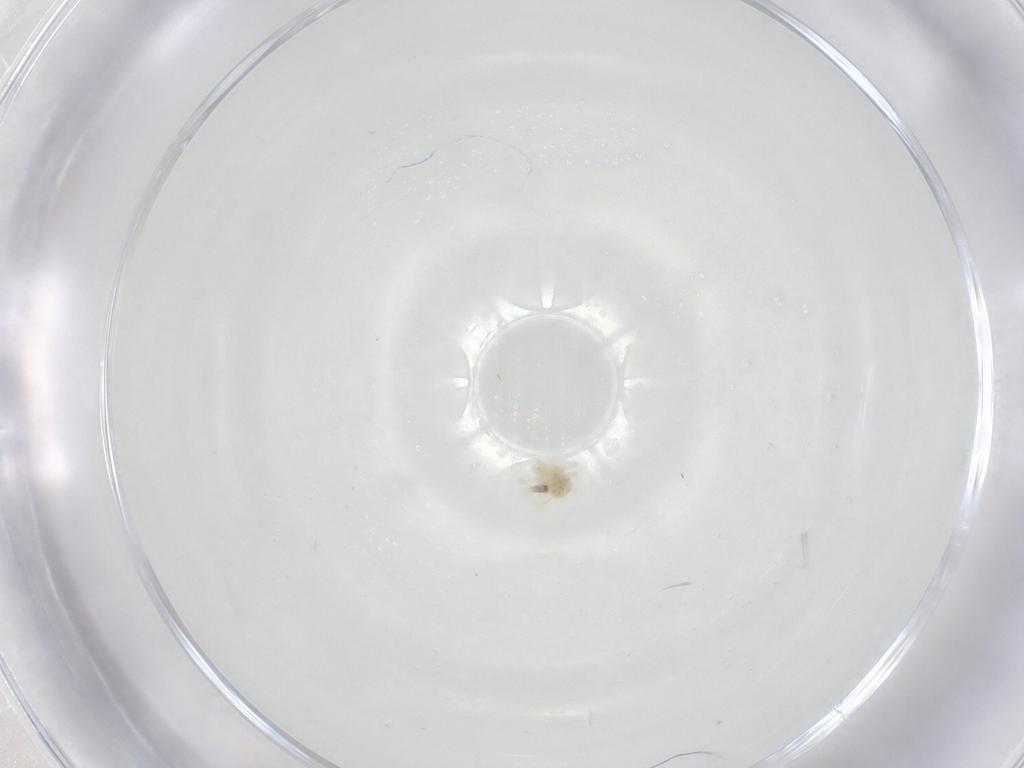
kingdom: Animalia
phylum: Arthropoda
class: Arachnida
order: Trombidiformes
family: Anystidae
